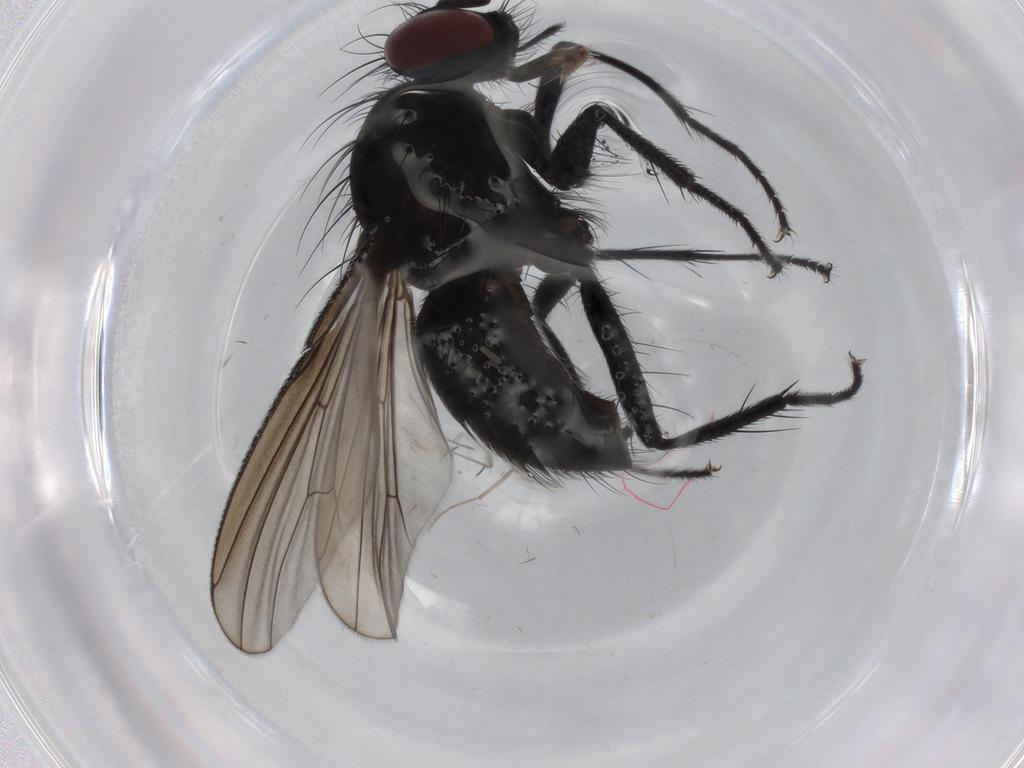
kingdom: Animalia
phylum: Arthropoda
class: Insecta
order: Diptera
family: Muscidae
